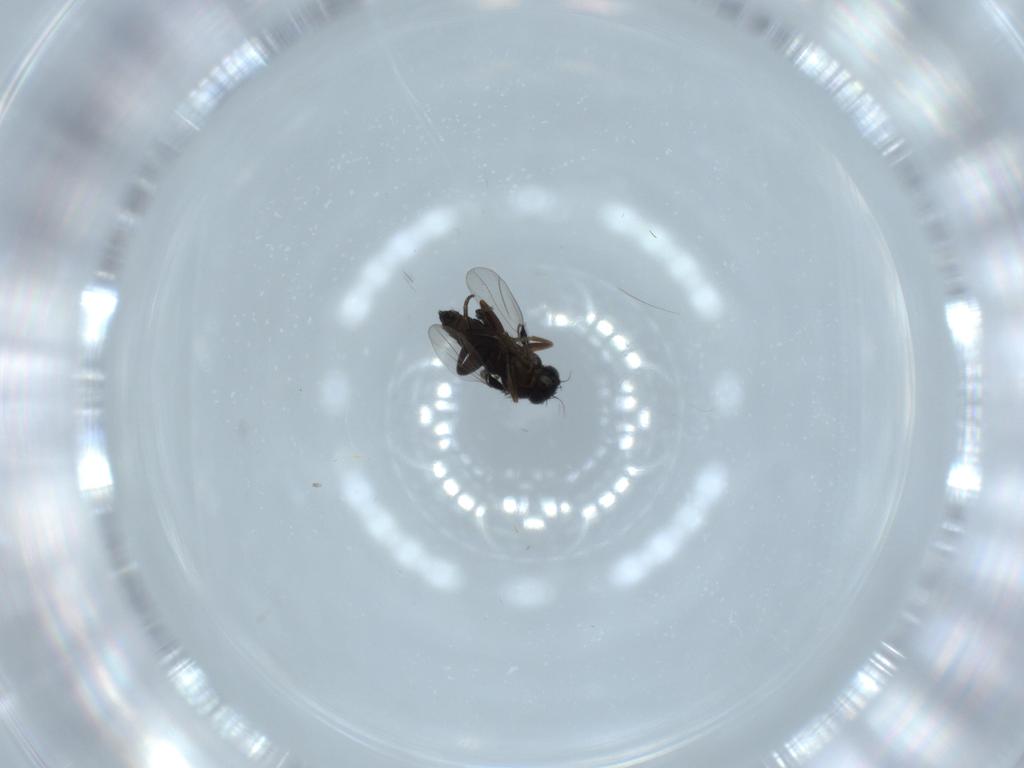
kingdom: Animalia
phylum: Arthropoda
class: Insecta
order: Diptera
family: Phoridae
